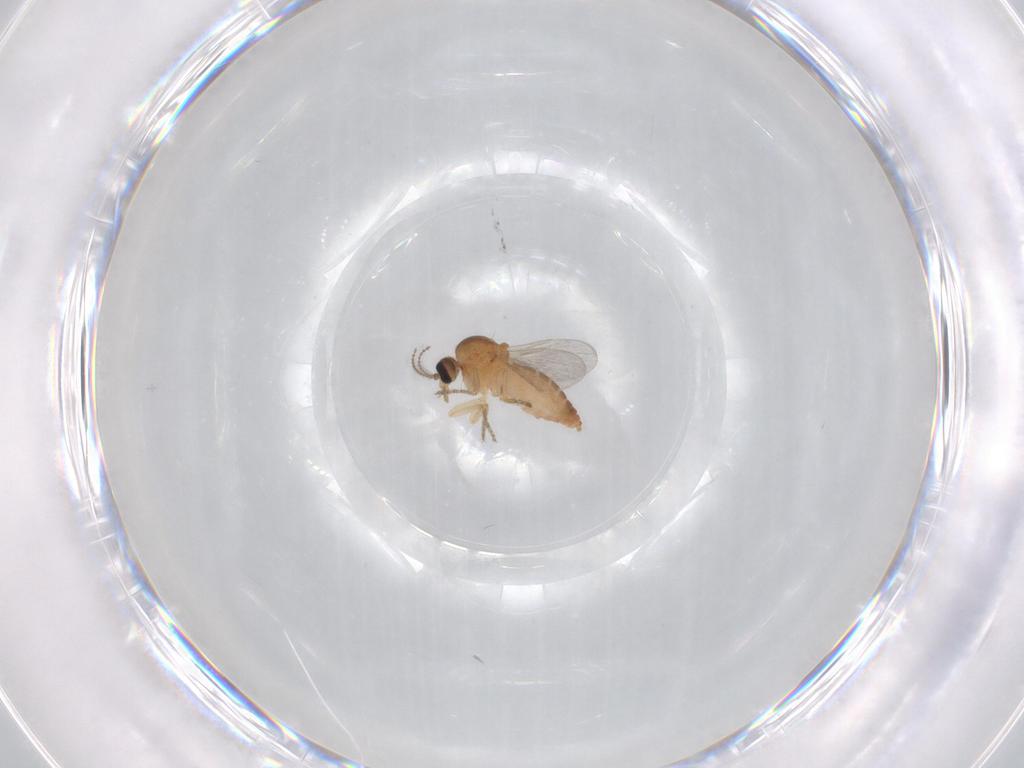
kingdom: Animalia
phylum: Arthropoda
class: Insecta
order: Diptera
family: Ceratopogonidae
